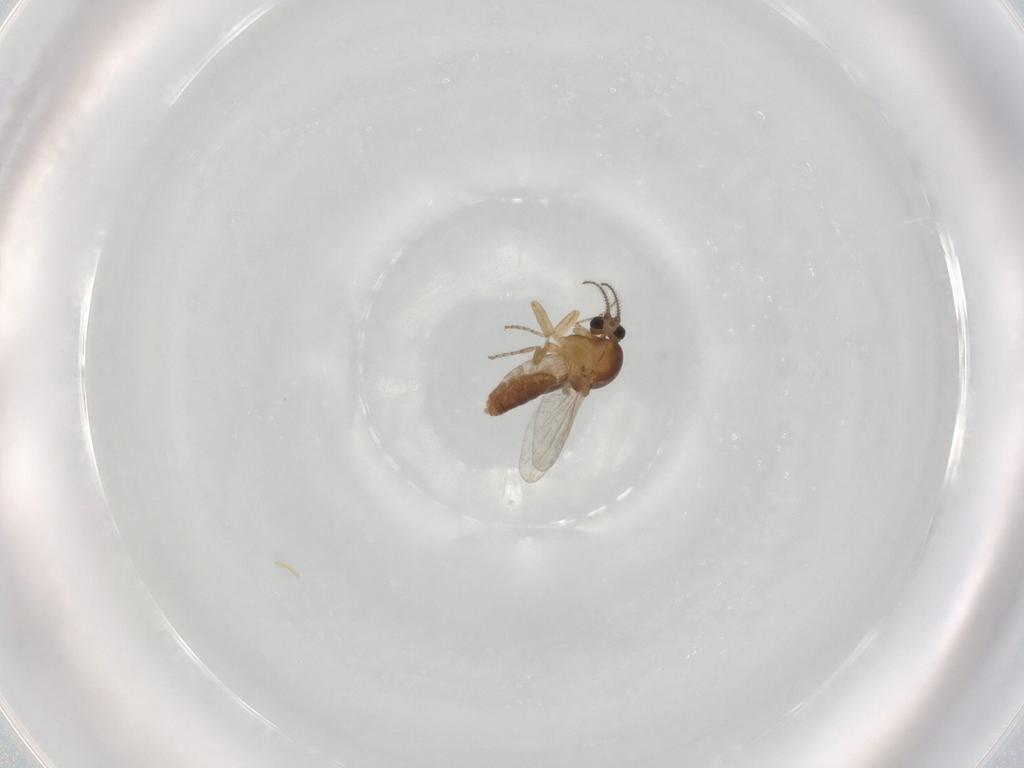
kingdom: Animalia
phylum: Arthropoda
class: Insecta
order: Diptera
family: Ceratopogonidae
